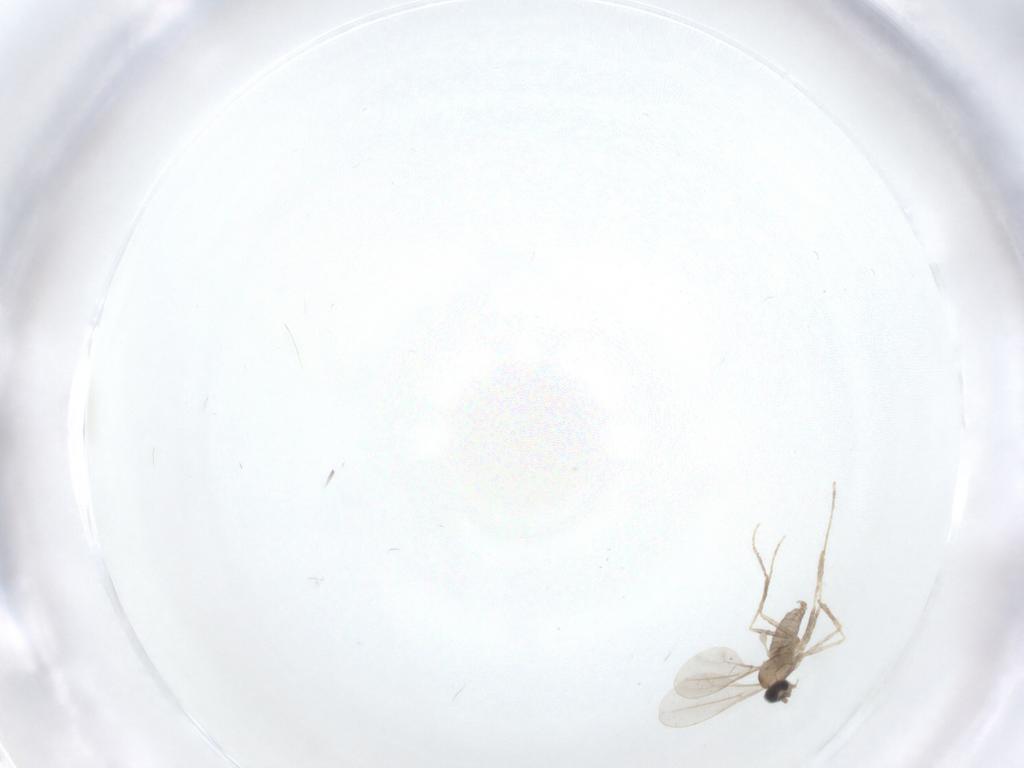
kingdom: Animalia
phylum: Arthropoda
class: Insecta
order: Diptera
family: Cecidomyiidae
